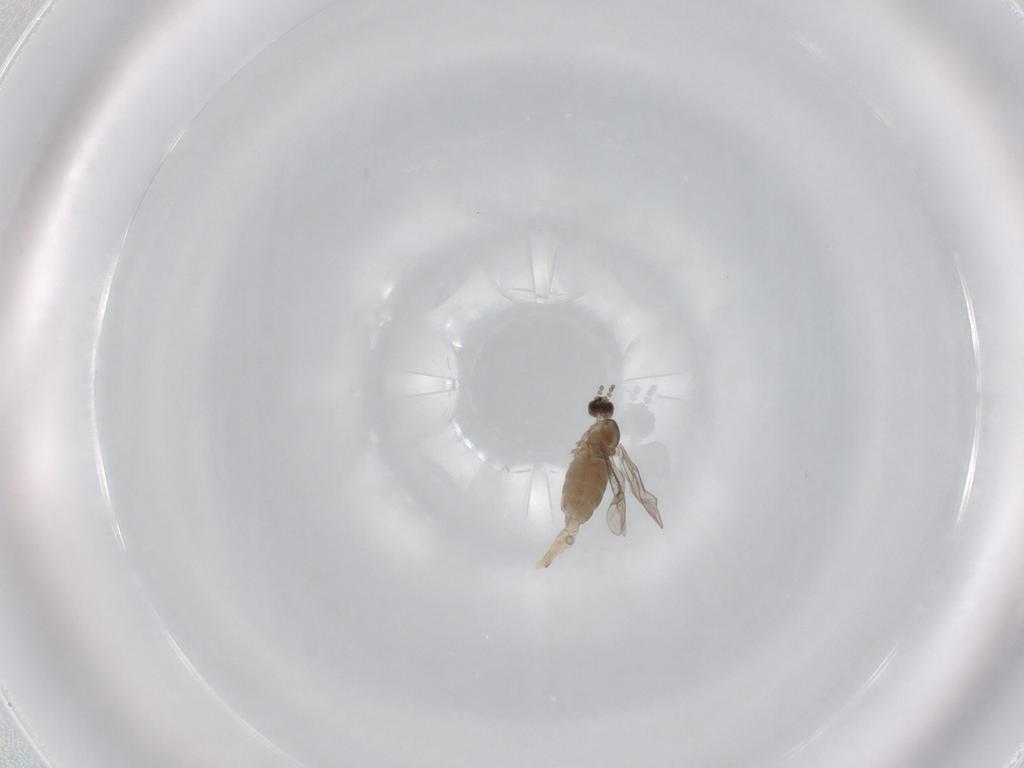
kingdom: Animalia
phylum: Arthropoda
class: Insecta
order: Diptera
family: Cecidomyiidae
